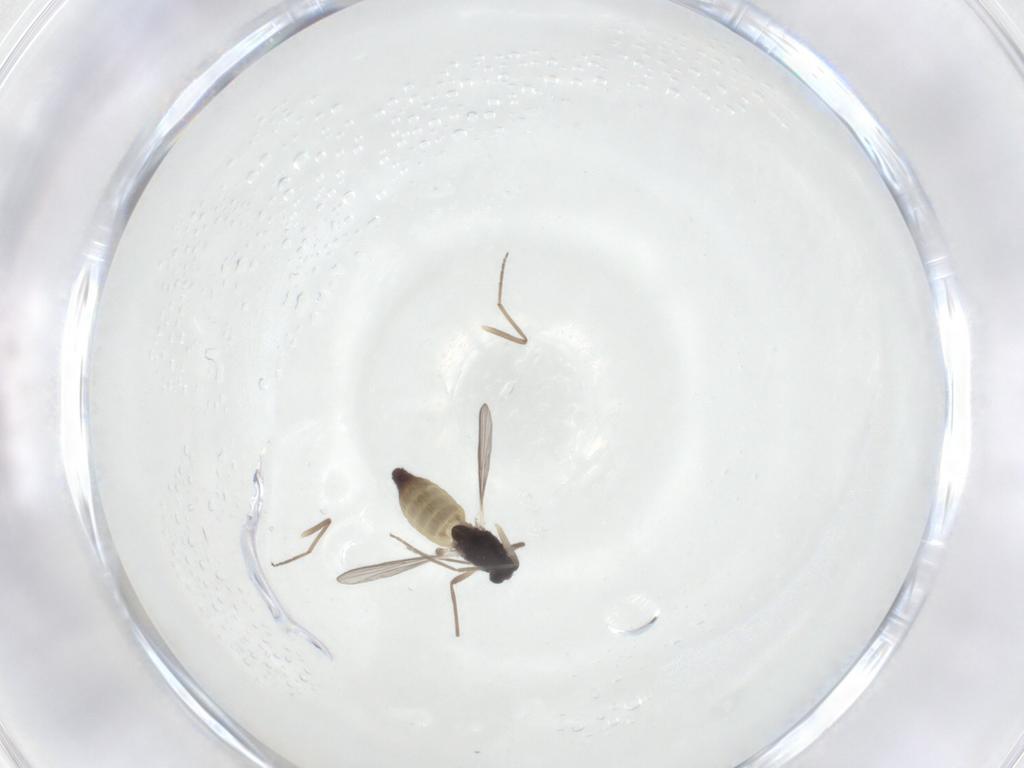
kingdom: Animalia
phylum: Arthropoda
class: Insecta
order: Diptera
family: Chironomidae
